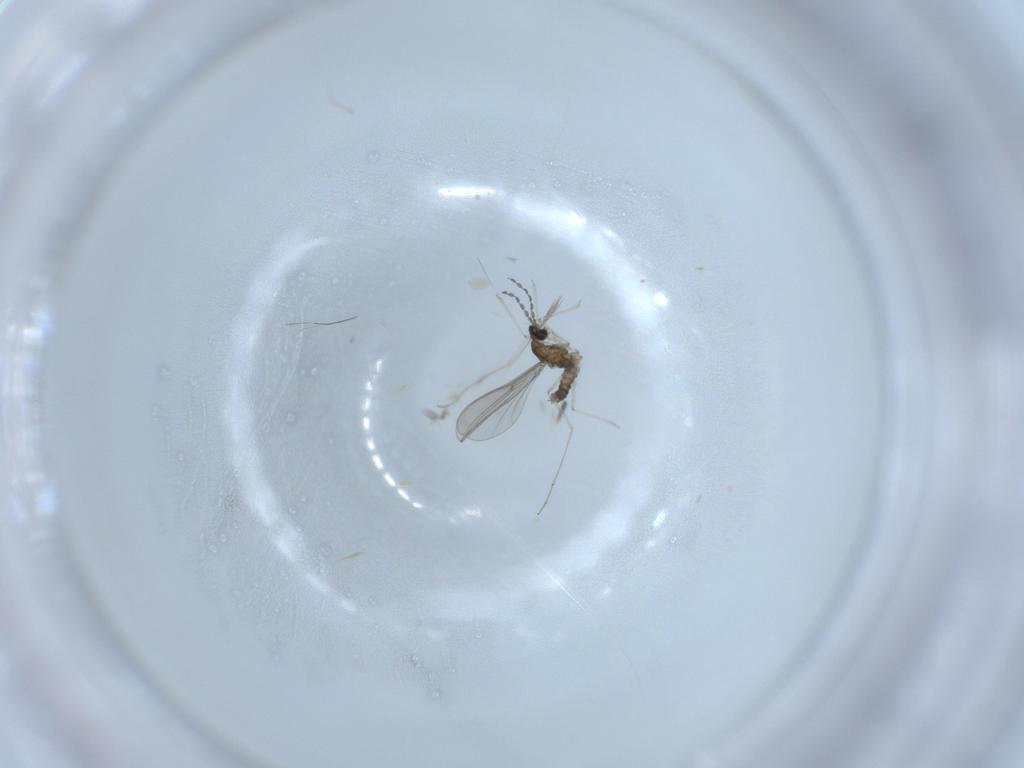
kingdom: Animalia
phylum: Arthropoda
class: Insecta
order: Diptera
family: Cecidomyiidae
